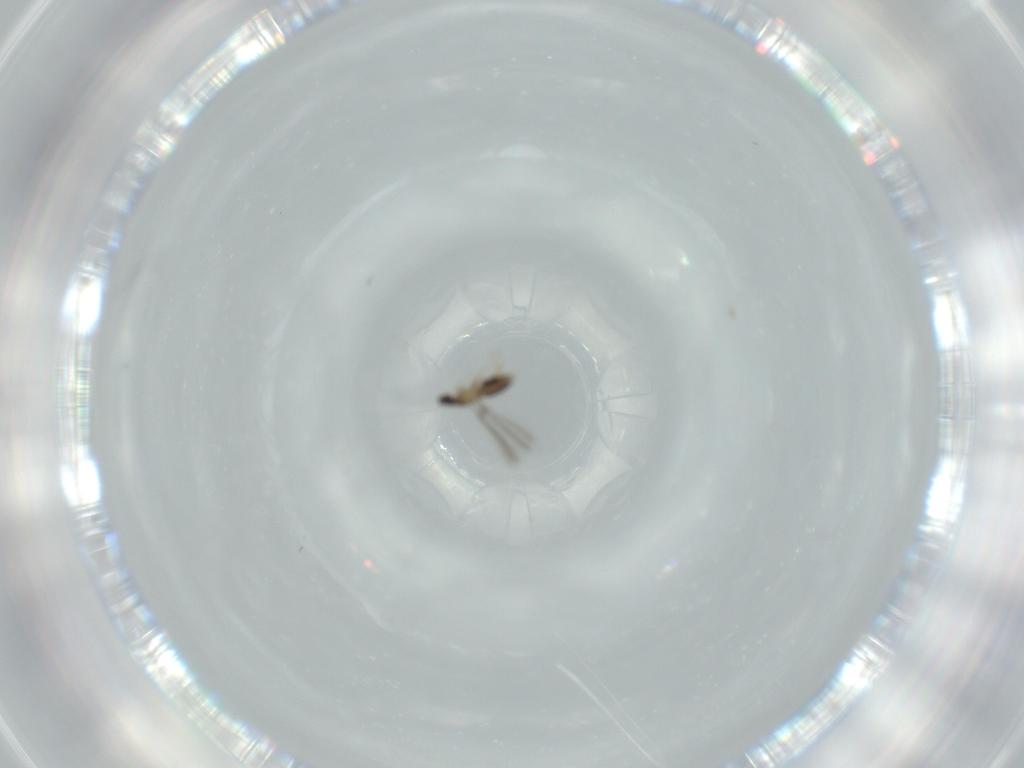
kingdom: Animalia
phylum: Arthropoda
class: Insecta
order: Hymenoptera
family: Mymaridae
